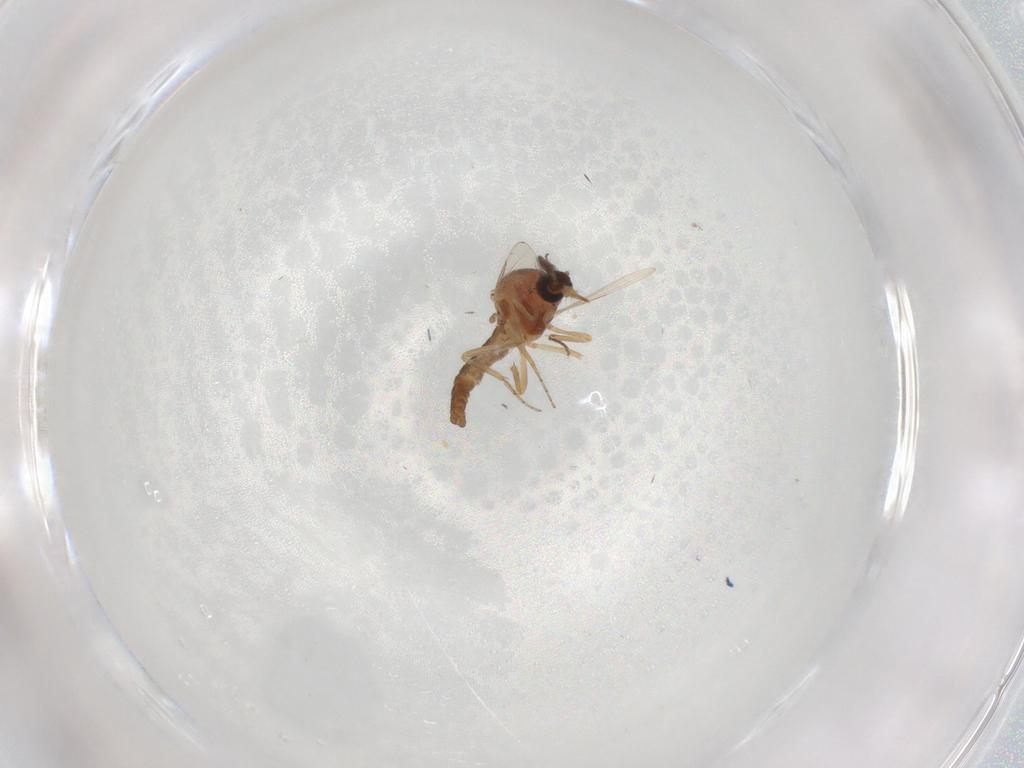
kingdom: Animalia
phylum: Arthropoda
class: Insecta
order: Diptera
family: Ceratopogonidae
